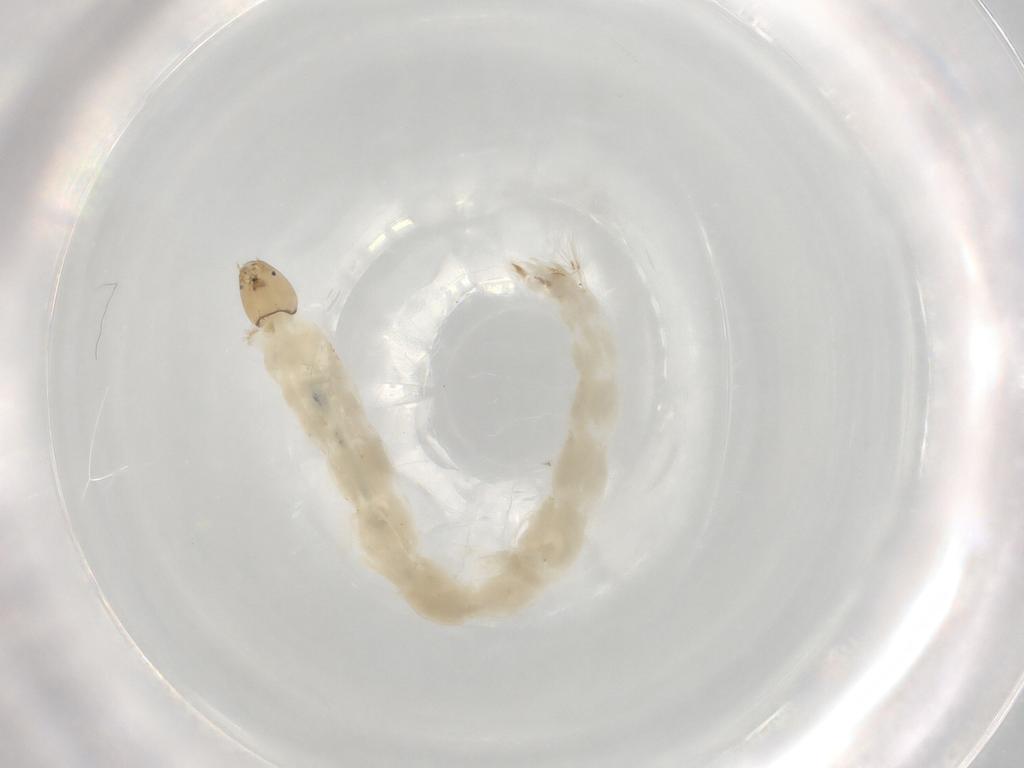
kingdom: Animalia
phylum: Arthropoda
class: Insecta
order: Diptera
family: Chironomidae
